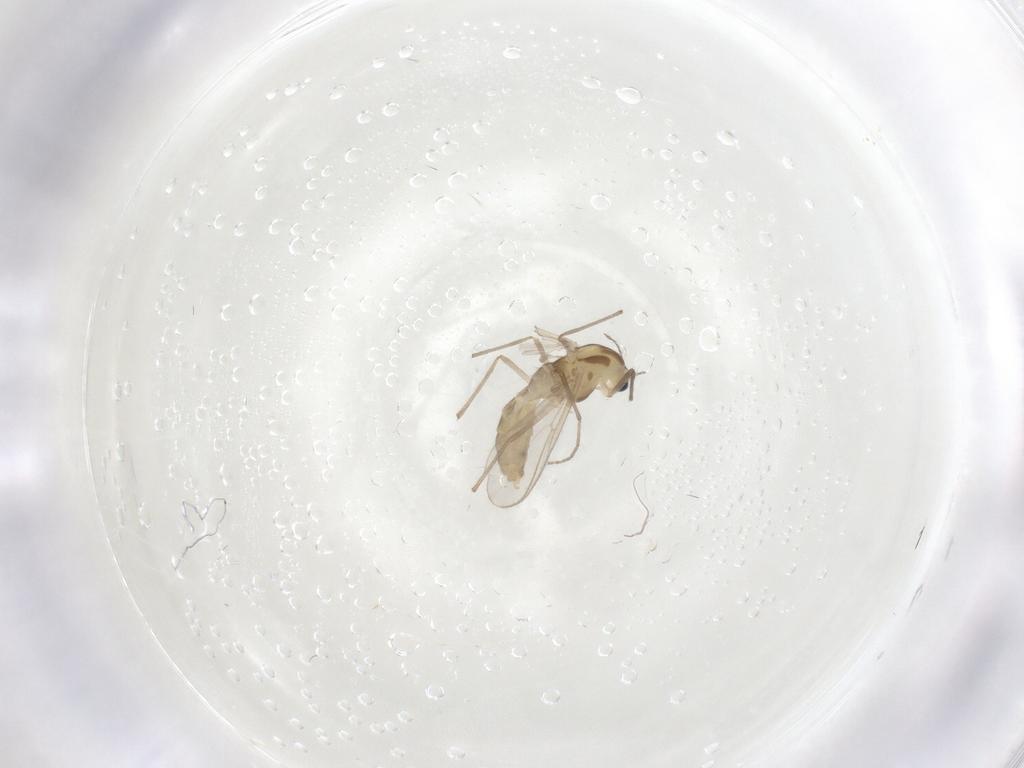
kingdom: Animalia
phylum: Arthropoda
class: Insecta
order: Diptera
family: Chironomidae
